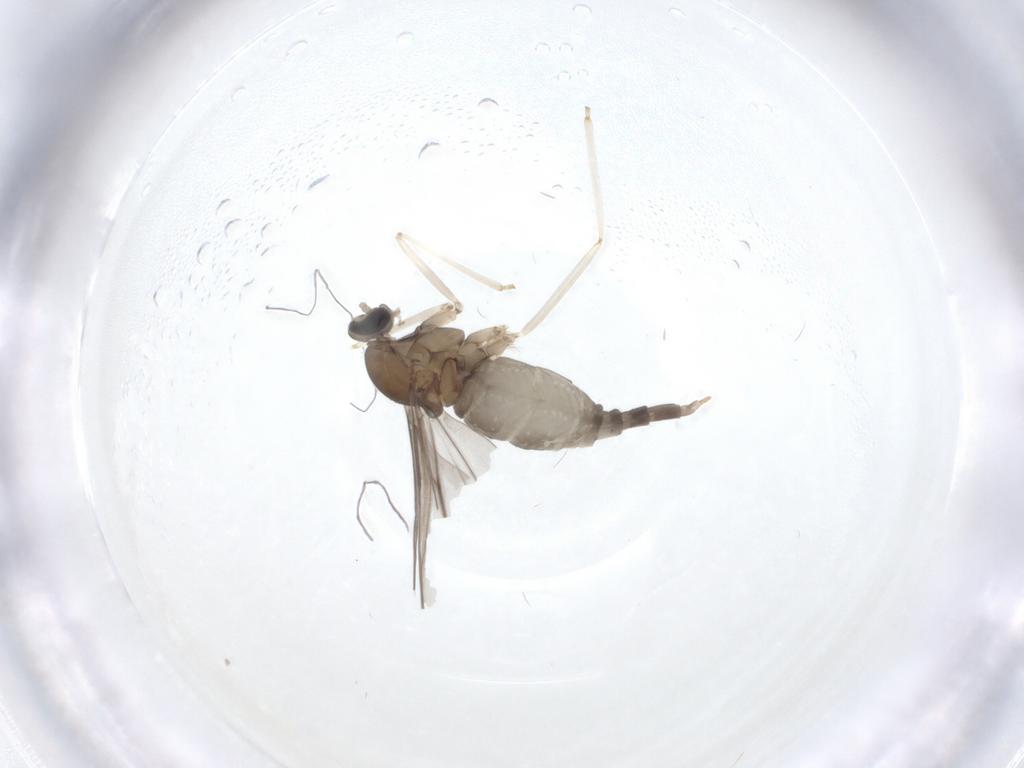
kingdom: Animalia
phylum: Arthropoda
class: Insecta
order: Diptera
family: Cecidomyiidae
